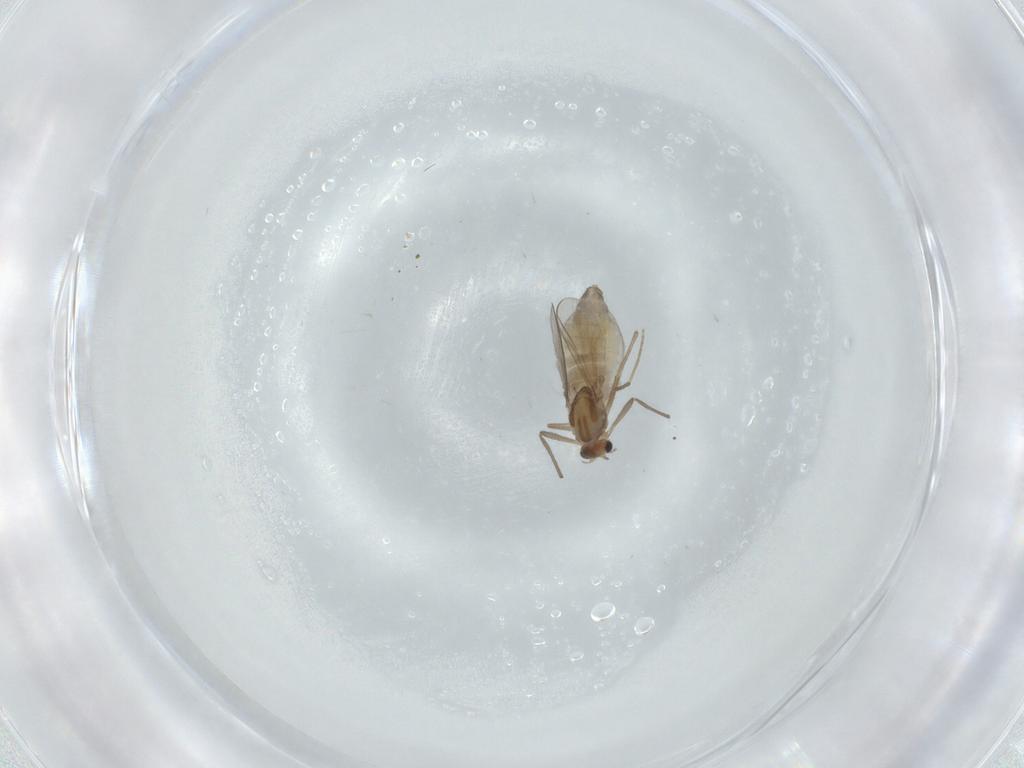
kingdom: Animalia
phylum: Arthropoda
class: Insecta
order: Diptera
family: Chironomidae
